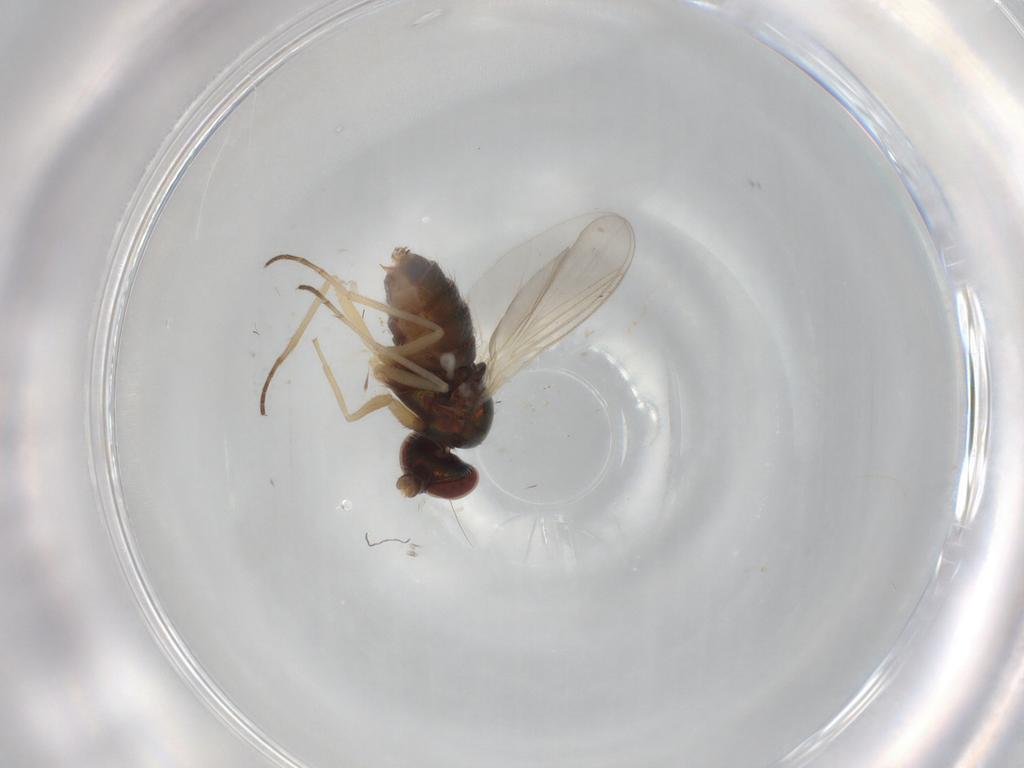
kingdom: Animalia
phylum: Arthropoda
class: Insecta
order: Diptera
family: Dolichopodidae
